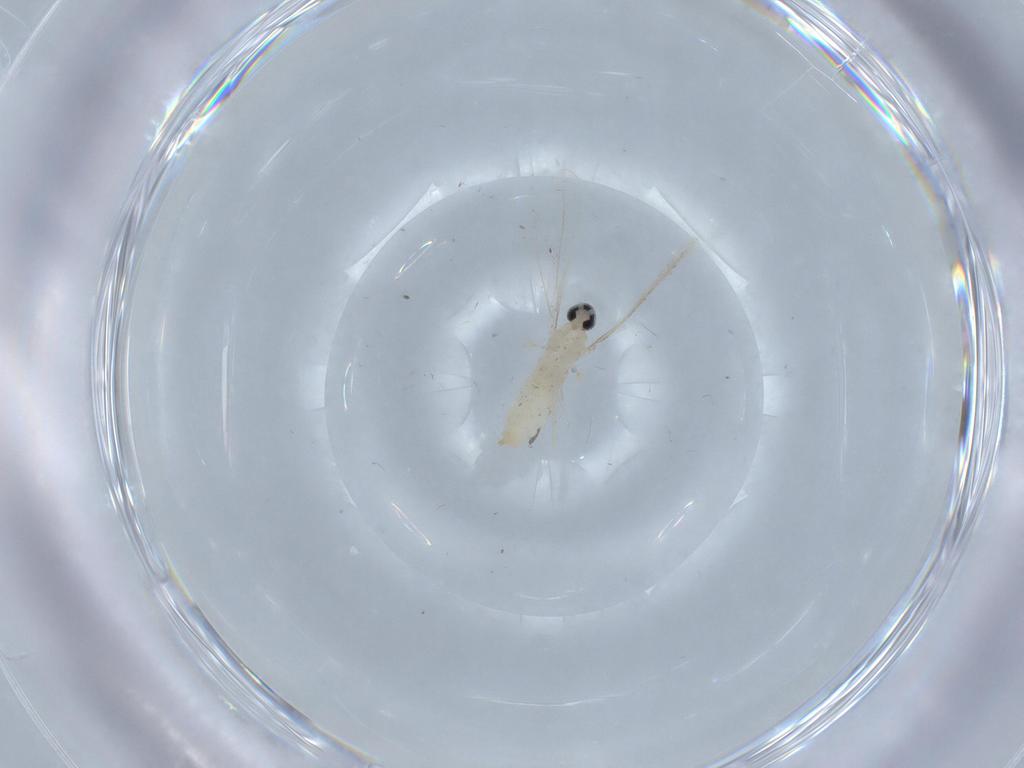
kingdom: Animalia
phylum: Arthropoda
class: Insecta
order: Diptera
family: Cecidomyiidae
